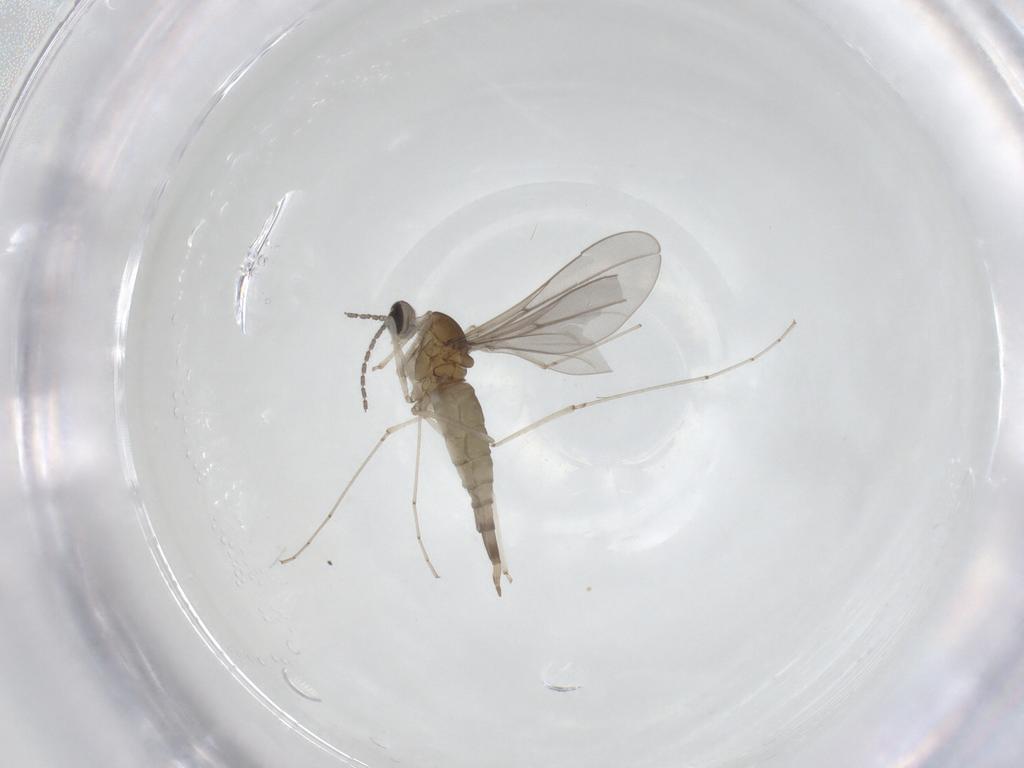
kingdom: Animalia
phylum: Arthropoda
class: Insecta
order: Diptera
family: Cecidomyiidae
